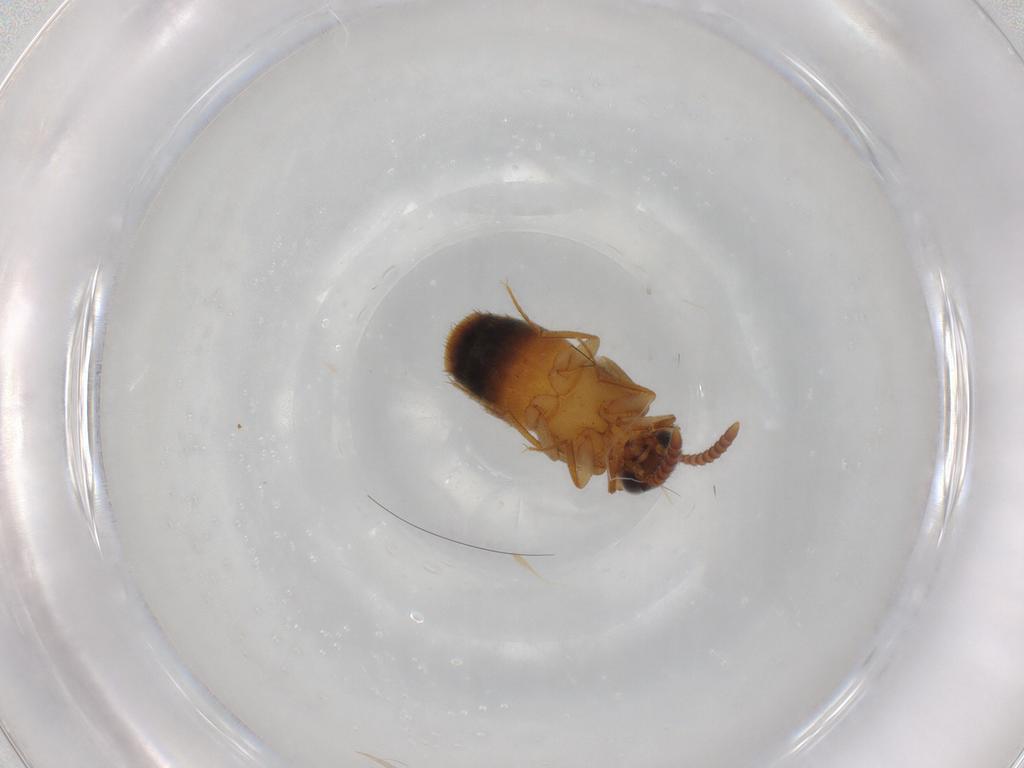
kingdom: Animalia
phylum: Arthropoda
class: Insecta
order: Coleoptera
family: Staphylinidae
